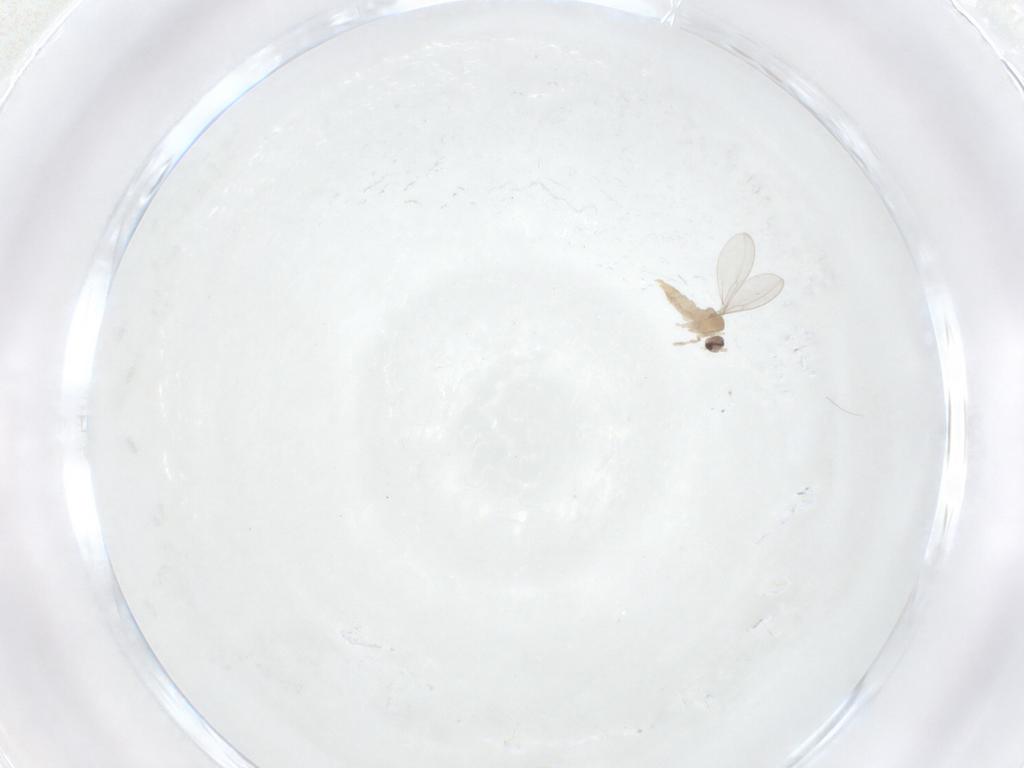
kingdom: Animalia
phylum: Arthropoda
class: Insecta
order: Diptera
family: Cecidomyiidae
